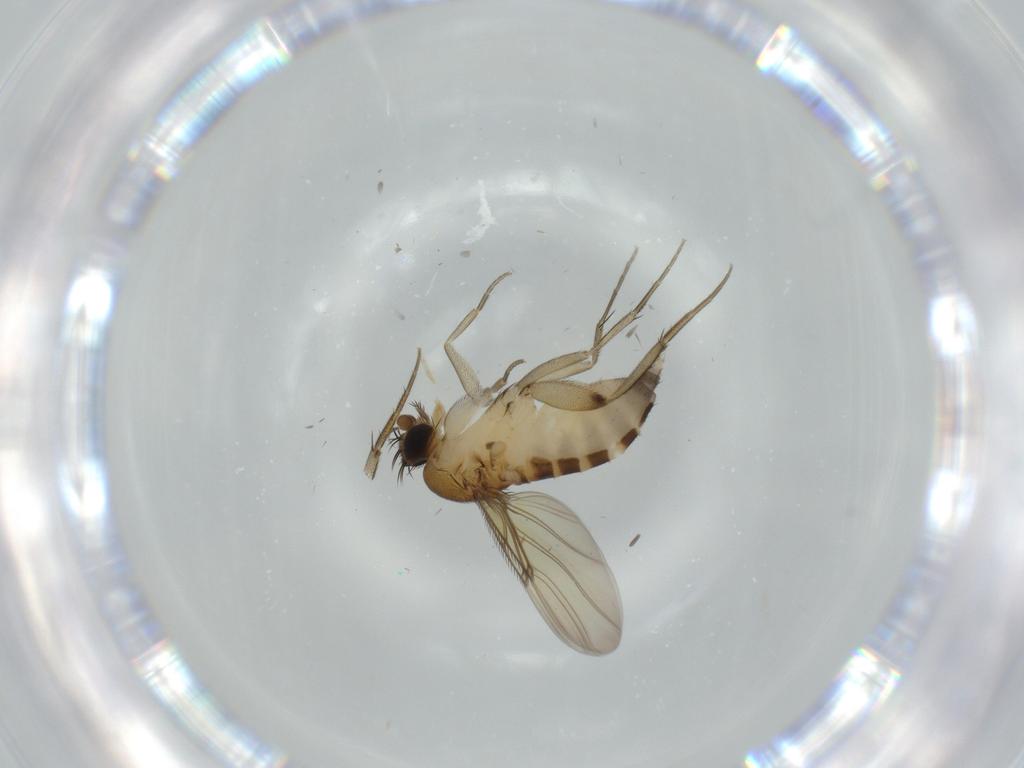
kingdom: Animalia
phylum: Arthropoda
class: Insecta
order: Diptera
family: Phoridae
